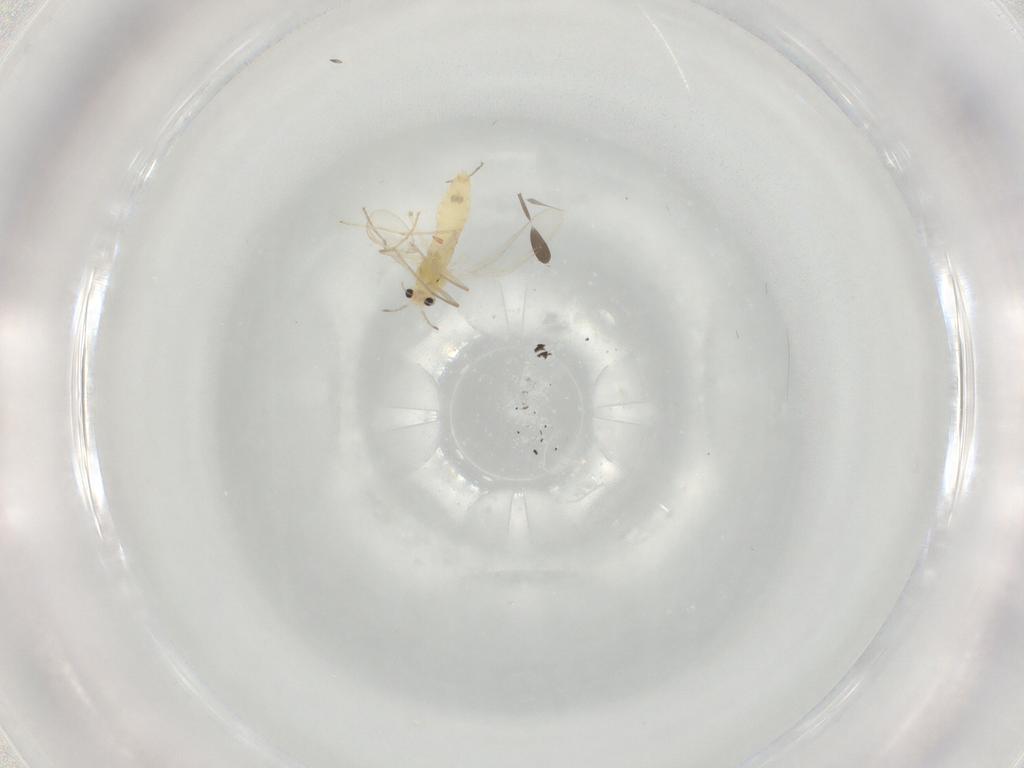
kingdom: Animalia
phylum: Arthropoda
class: Insecta
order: Diptera
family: Chironomidae
